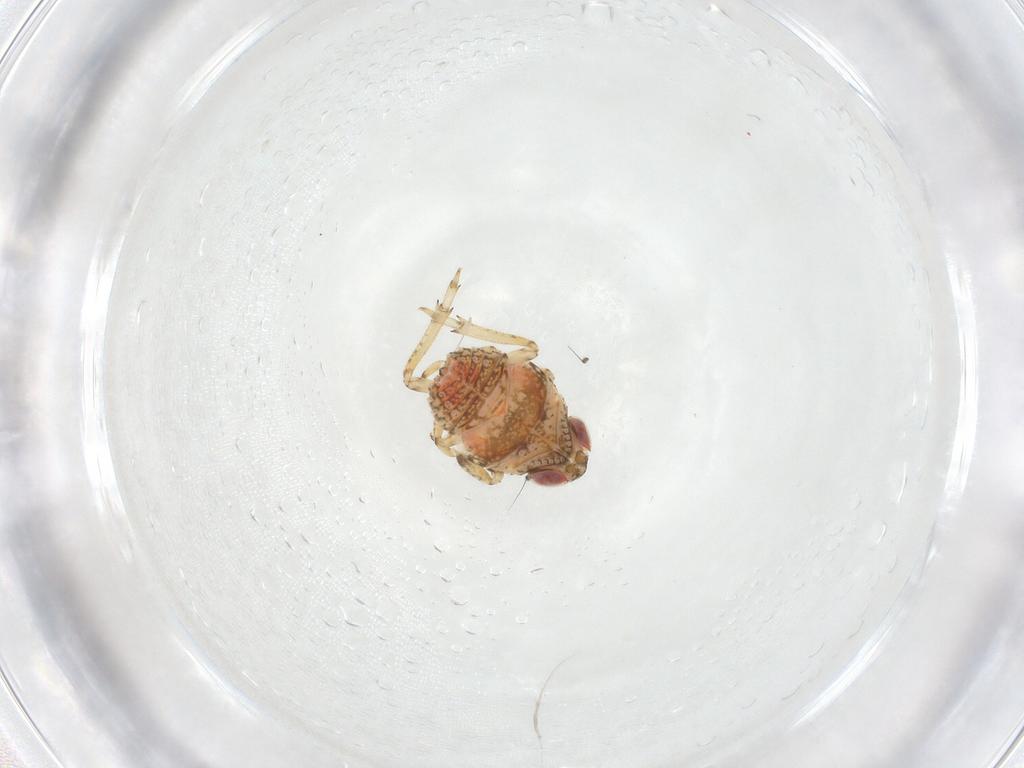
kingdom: Animalia
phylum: Arthropoda
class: Insecta
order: Hemiptera
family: Issidae
